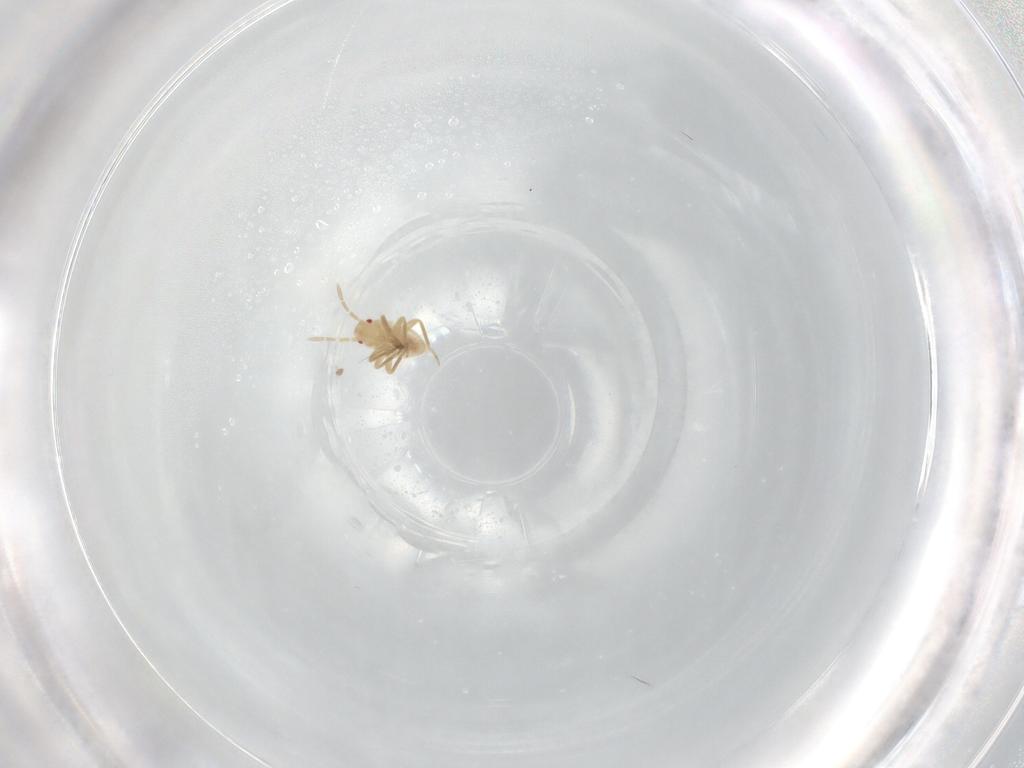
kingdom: Animalia
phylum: Arthropoda
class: Insecta
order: Hemiptera
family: Miridae
